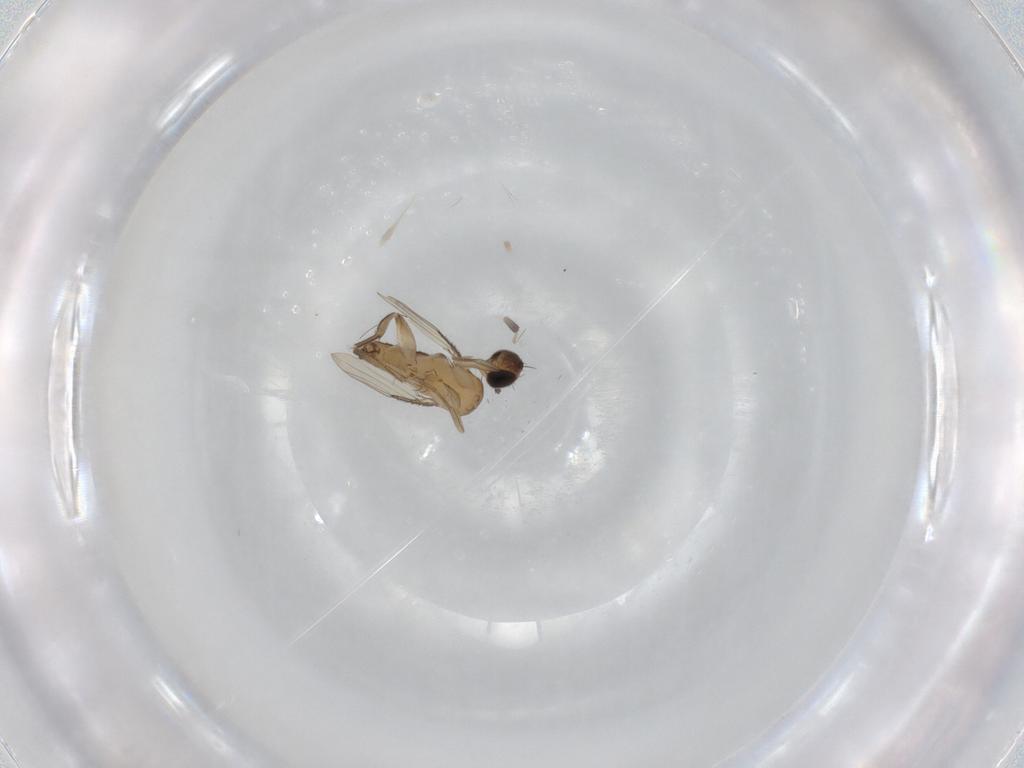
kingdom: Animalia
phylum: Arthropoda
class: Insecta
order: Diptera
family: Phoridae
